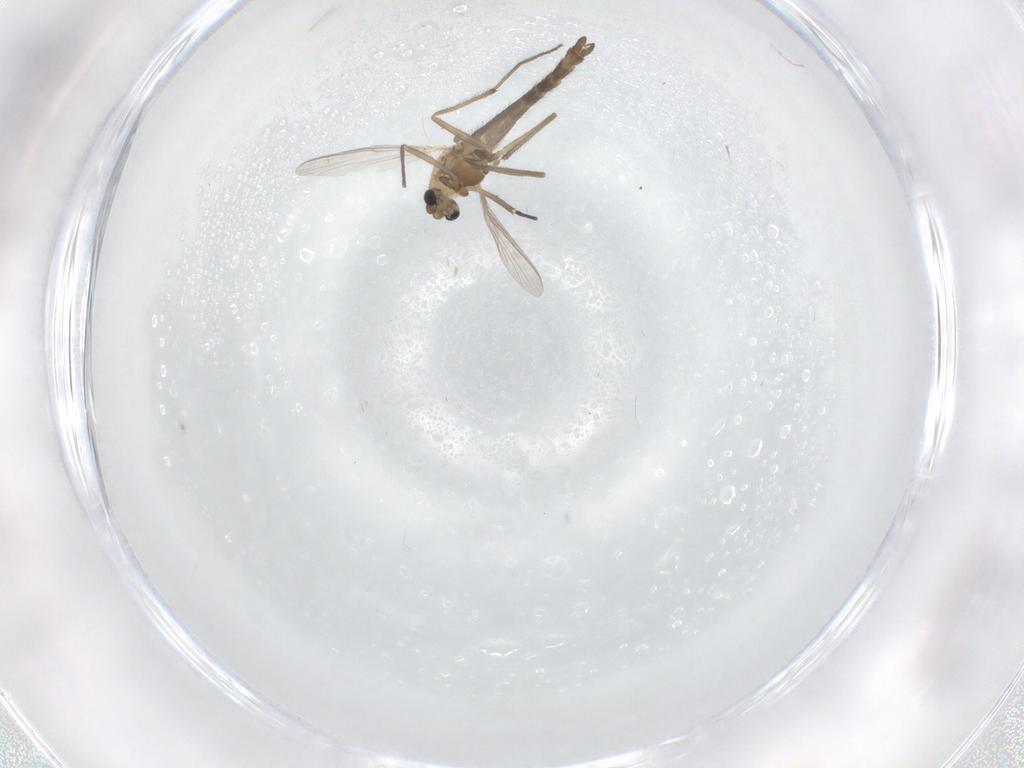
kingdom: Animalia
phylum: Arthropoda
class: Insecta
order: Diptera
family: Chironomidae
